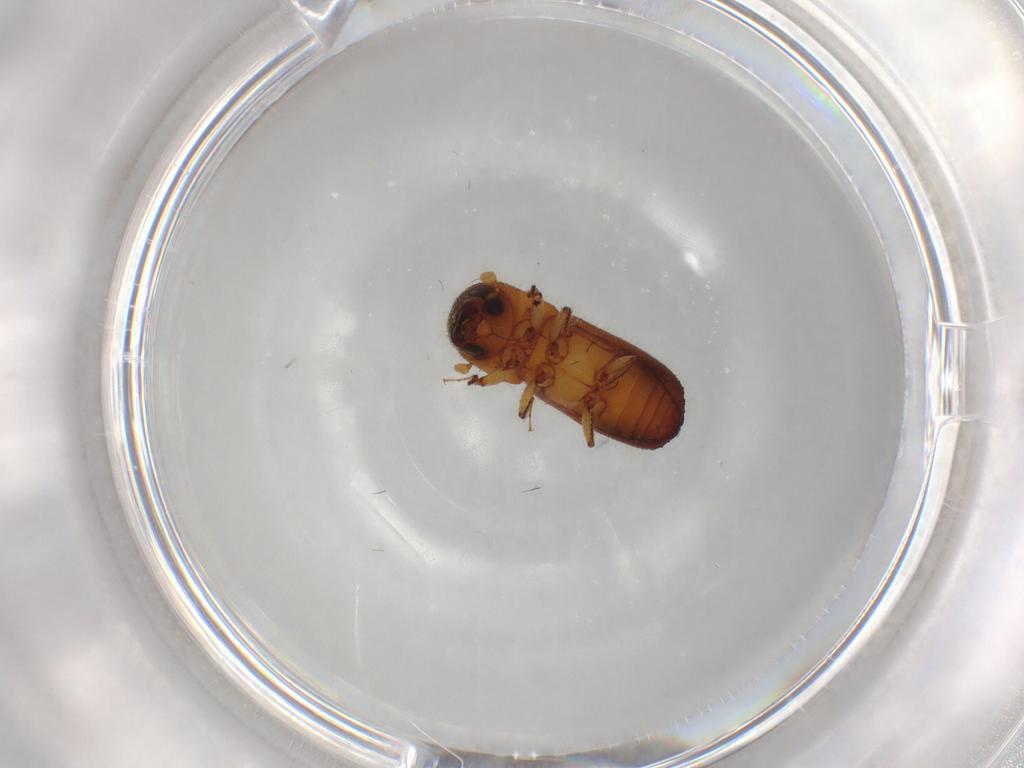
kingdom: Animalia
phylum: Arthropoda
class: Insecta
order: Coleoptera
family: Curculionidae
